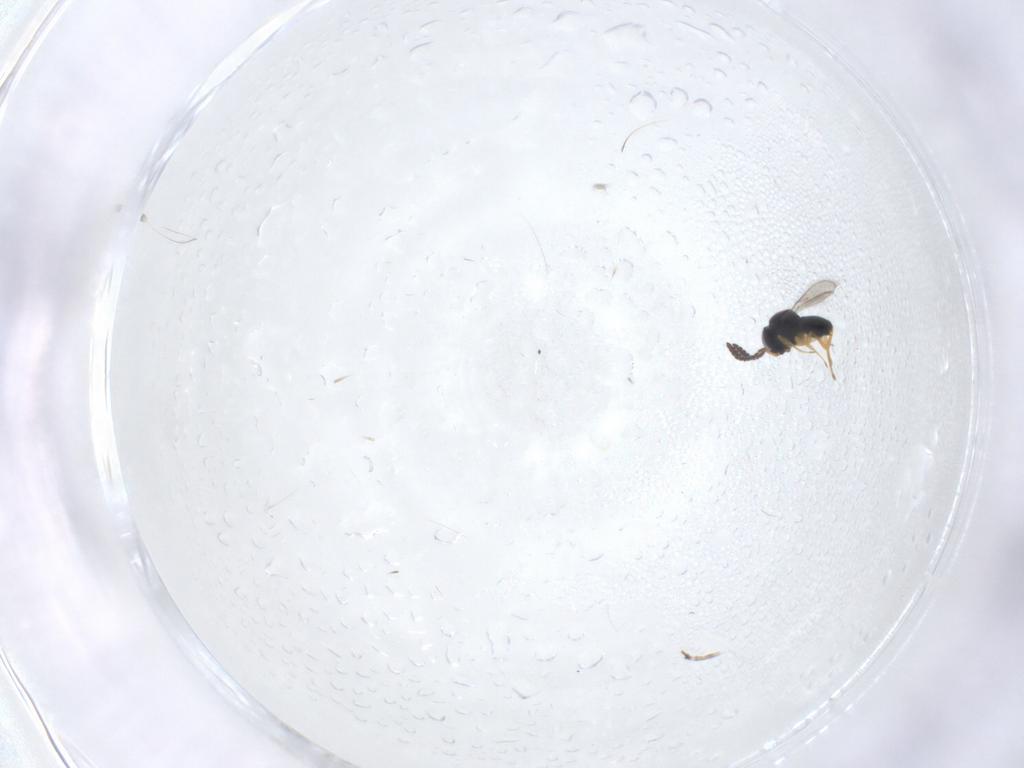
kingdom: Animalia
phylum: Arthropoda
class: Insecta
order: Hymenoptera
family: Scelionidae
